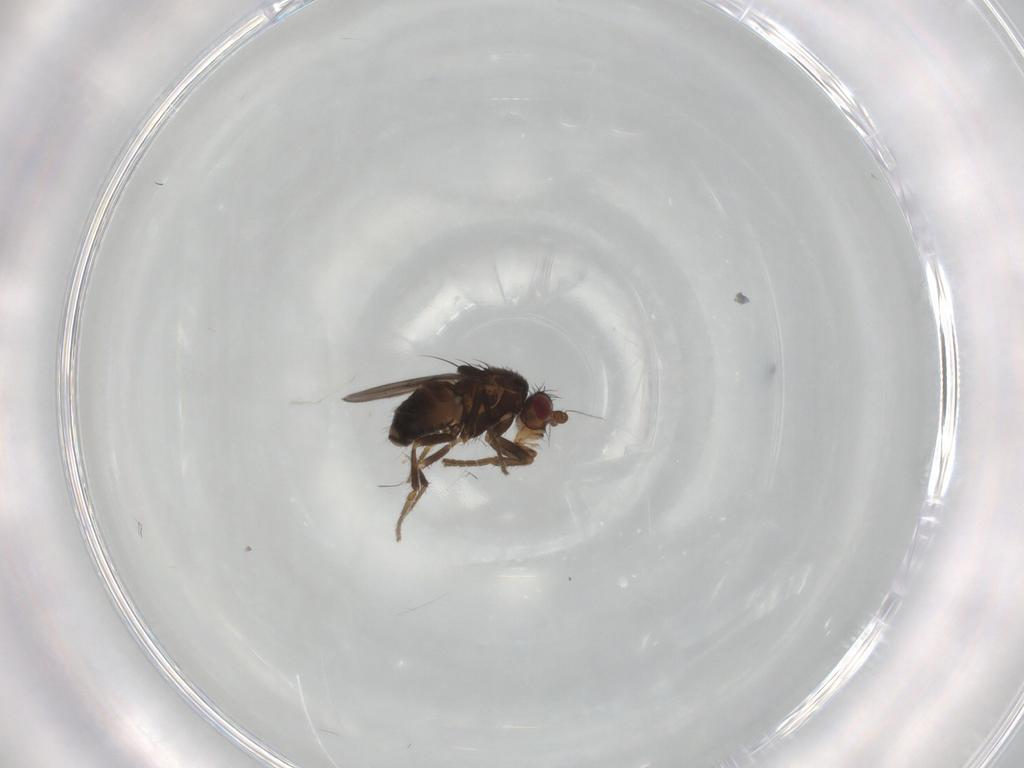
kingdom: Animalia
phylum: Arthropoda
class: Insecta
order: Diptera
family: Sphaeroceridae
